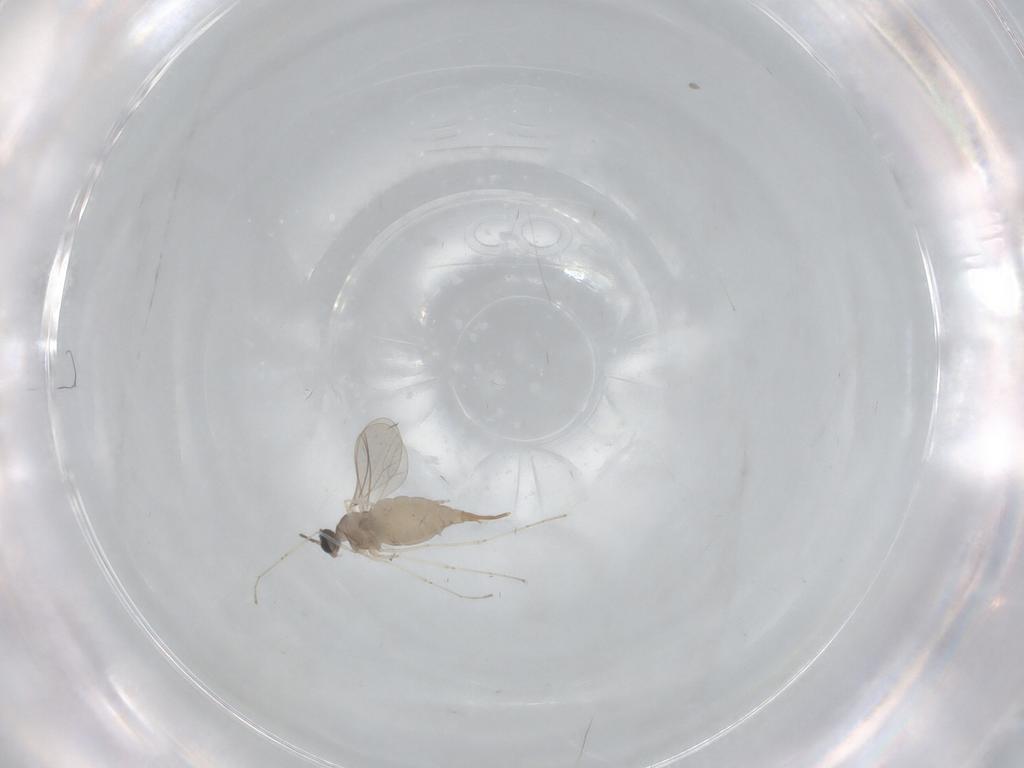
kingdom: Animalia
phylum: Arthropoda
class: Insecta
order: Diptera
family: Cecidomyiidae
